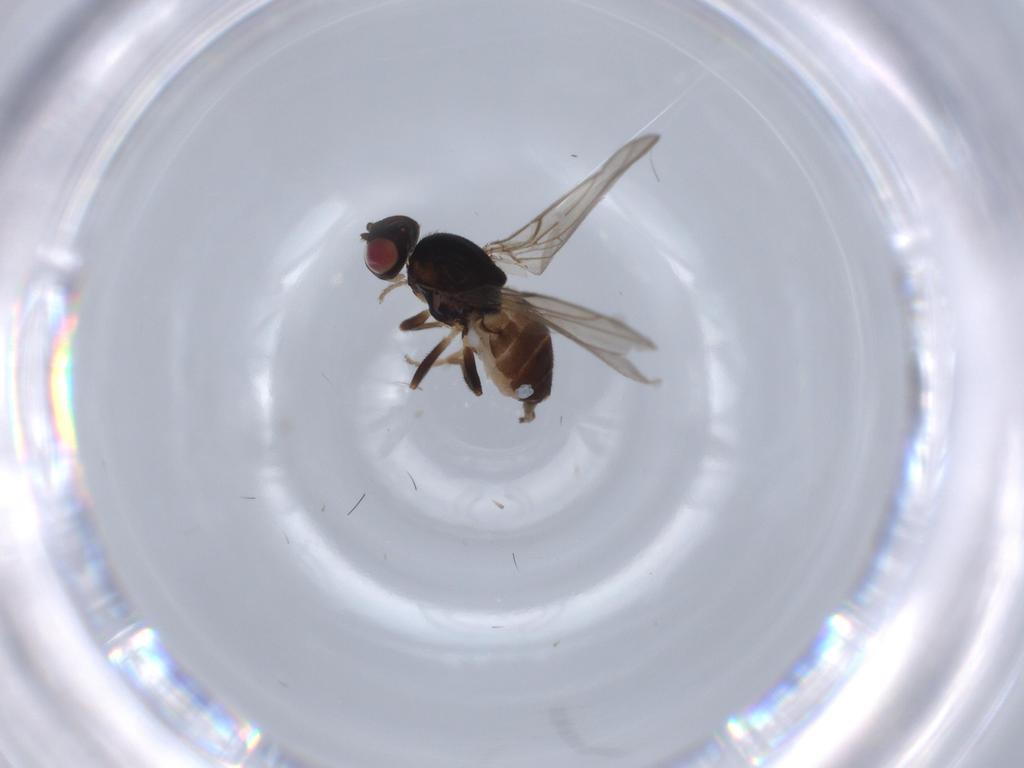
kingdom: Animalia
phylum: Arthropoda
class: Insecta
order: Diptera
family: Chloropidae
